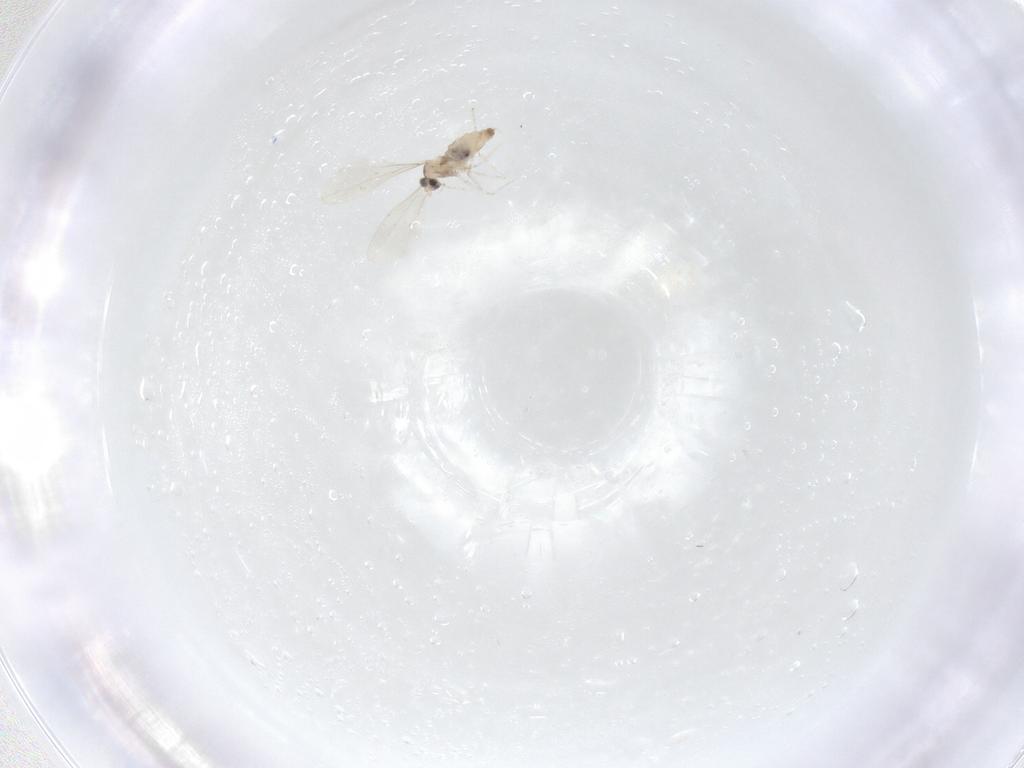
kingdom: Animalia
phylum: Arthropoda
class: Insecta
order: Diptera
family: Cecidomyiidae
